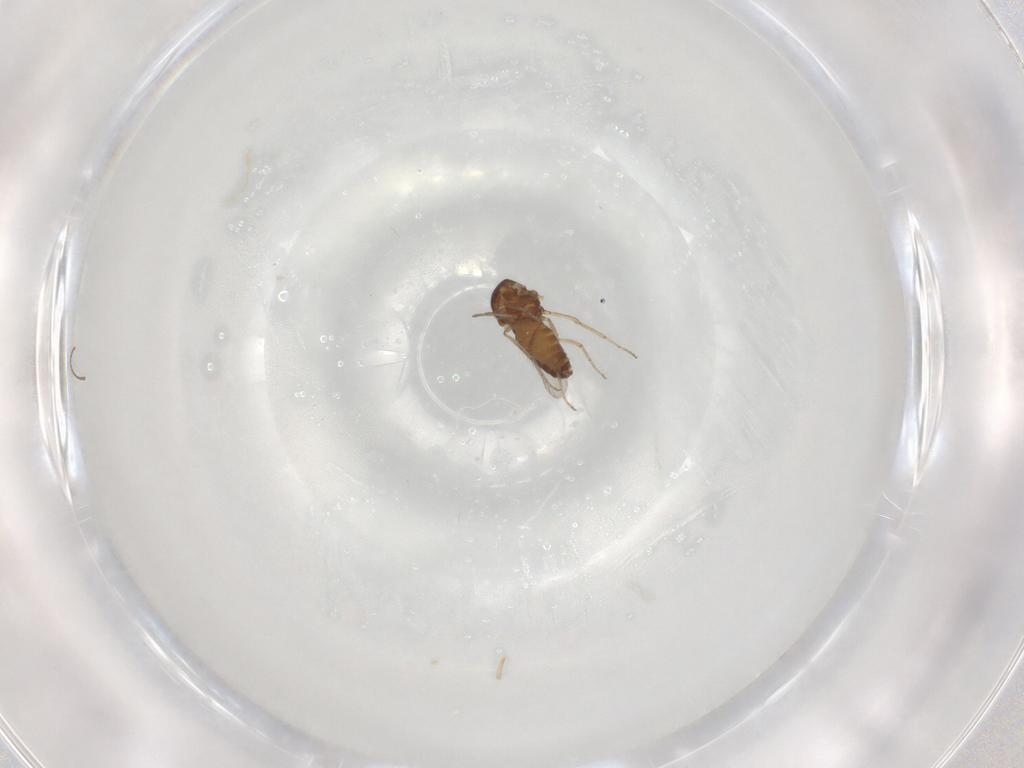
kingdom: Animalia
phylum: Arthropoda
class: Insecta
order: Diptera
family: Ceratopogonidae
